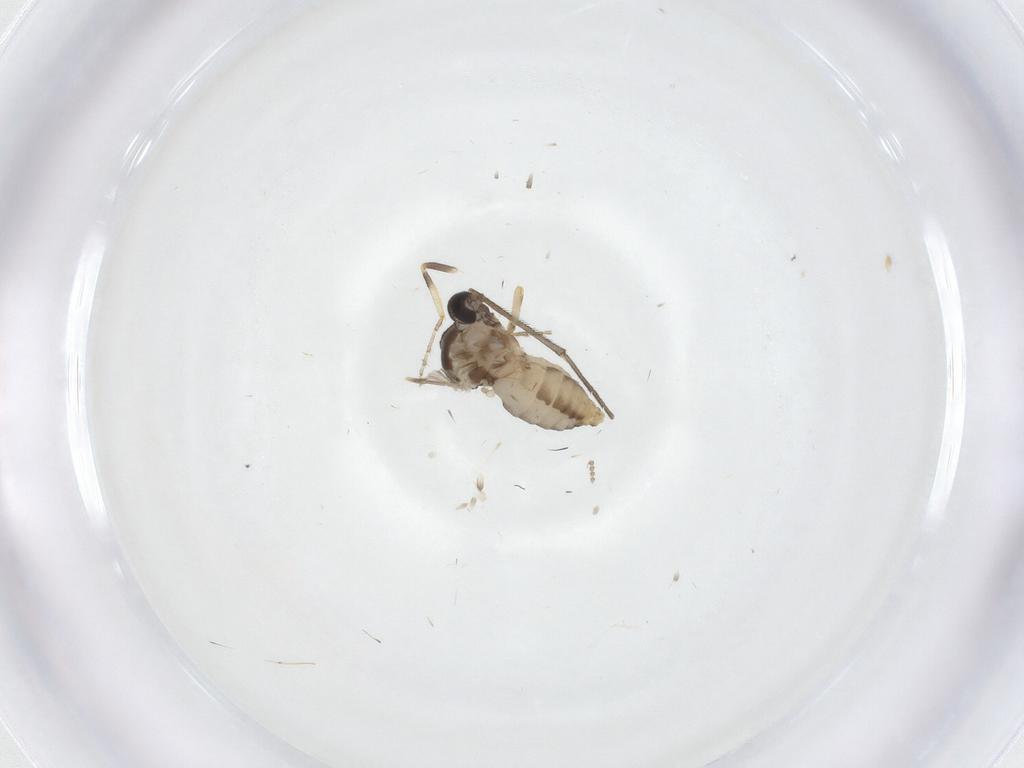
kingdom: Animalia
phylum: Arthropoda
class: Insecta
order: Diptera
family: Ceratopogonidae
